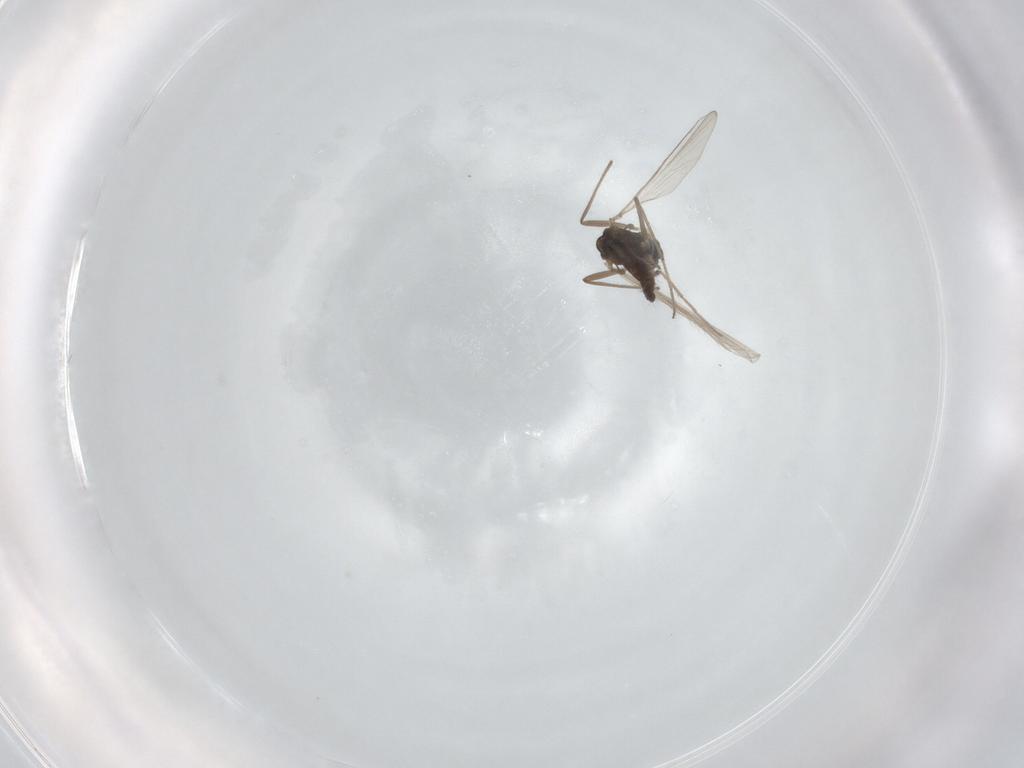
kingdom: Animalia
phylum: Arthropoda
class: Insecta
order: Diptera
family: Chironomidae
